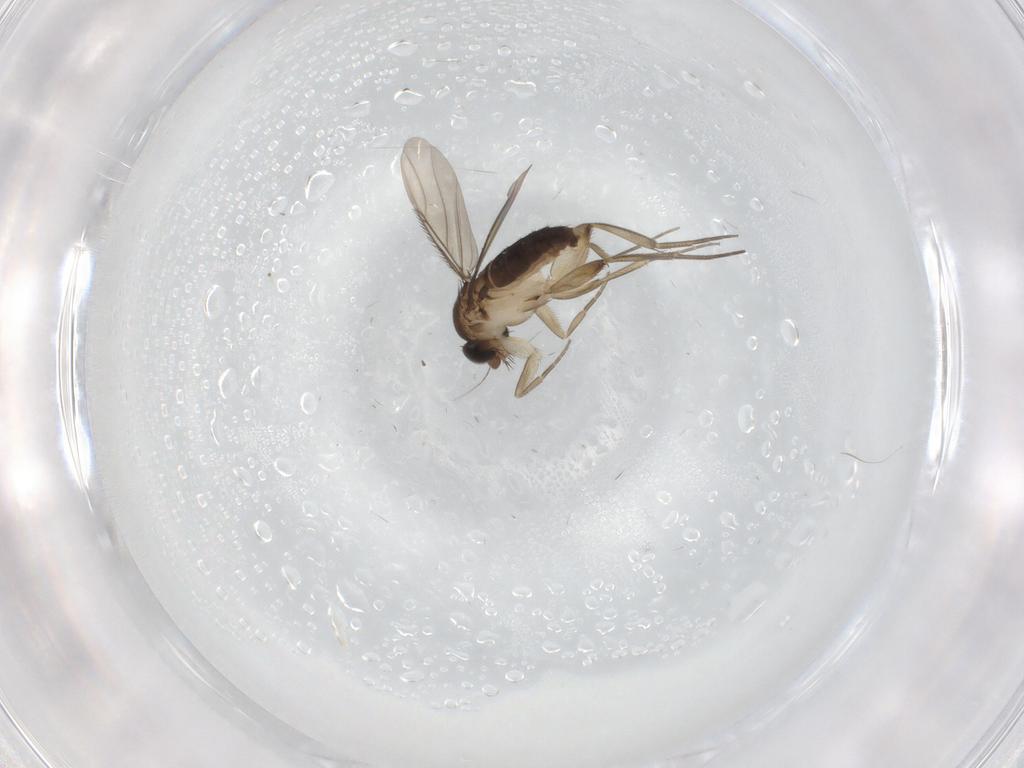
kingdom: Animalia
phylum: Arthropoda
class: Insecta
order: Diptera
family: Phoridae
